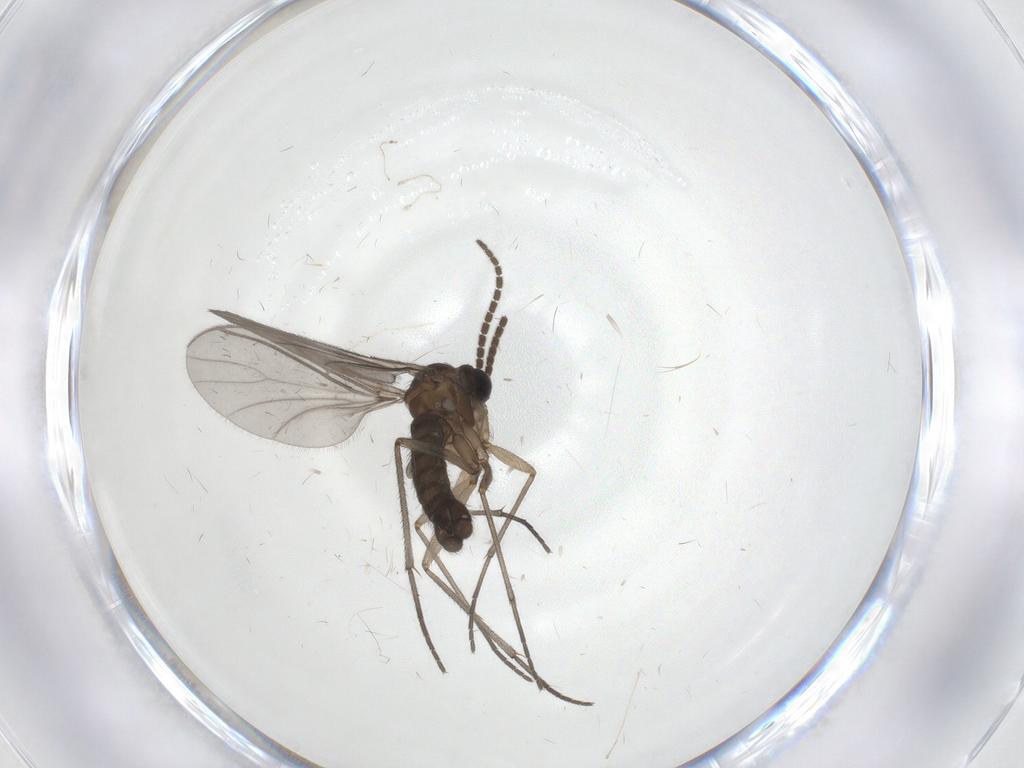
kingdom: Animalia
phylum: Arthropoda
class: Insecta
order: Diptera
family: Sciaridae
